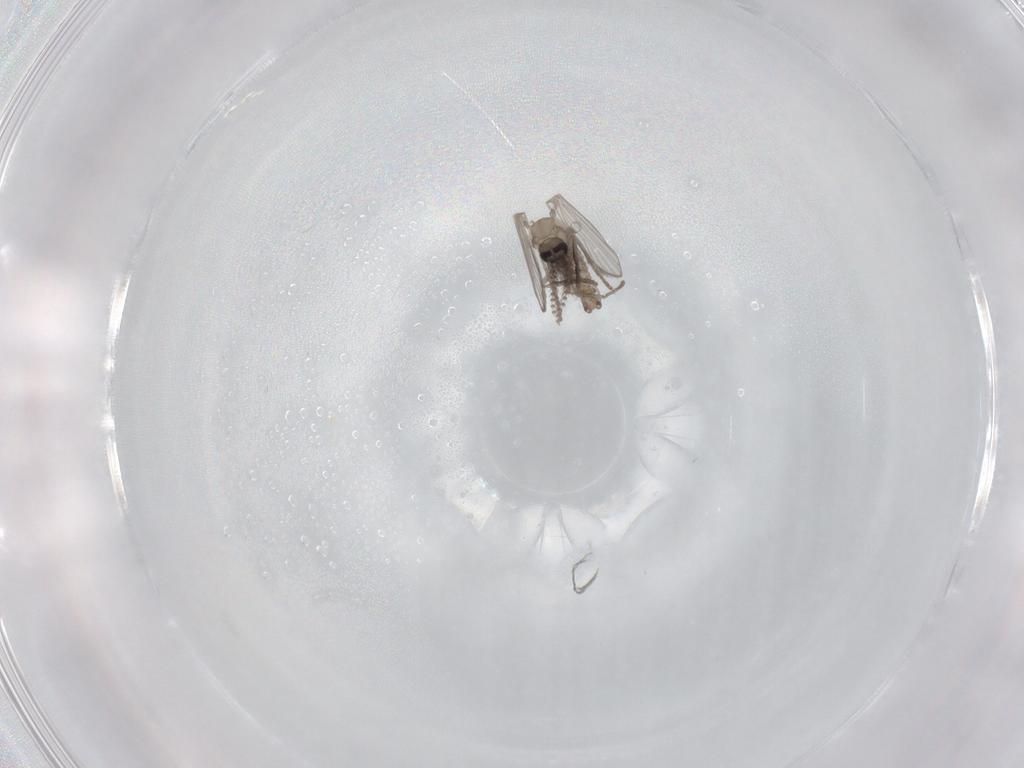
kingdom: Animalia
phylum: Arthropoda
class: Insecta
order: Diptera
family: Psychodidae
